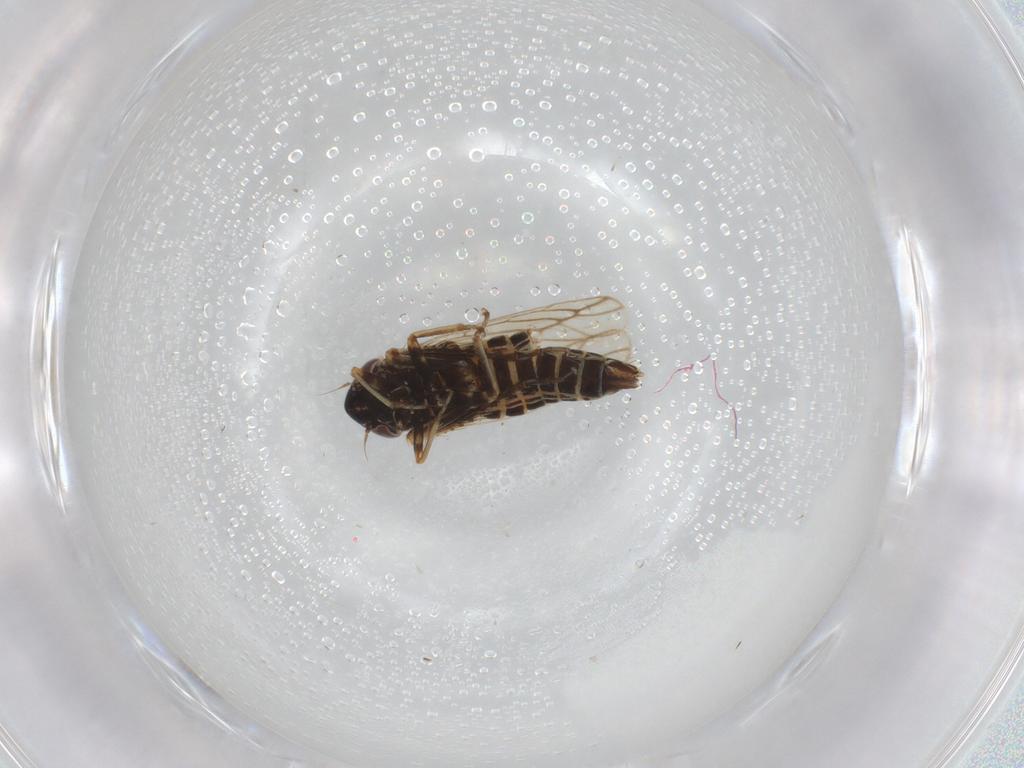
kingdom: Animalia
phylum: Arthropoda
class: Insecta
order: Hemiptera
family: Cicadellidae
